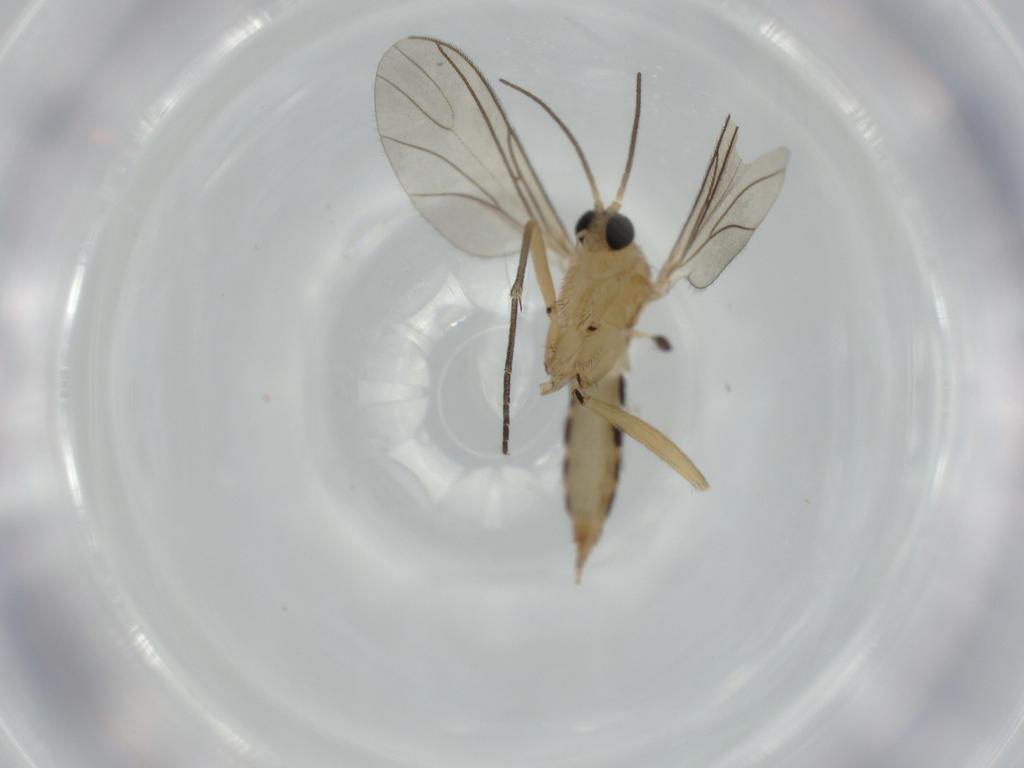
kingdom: Animalia
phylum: Arthropoda
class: Insecta
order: Diptera
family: Sciaridae
